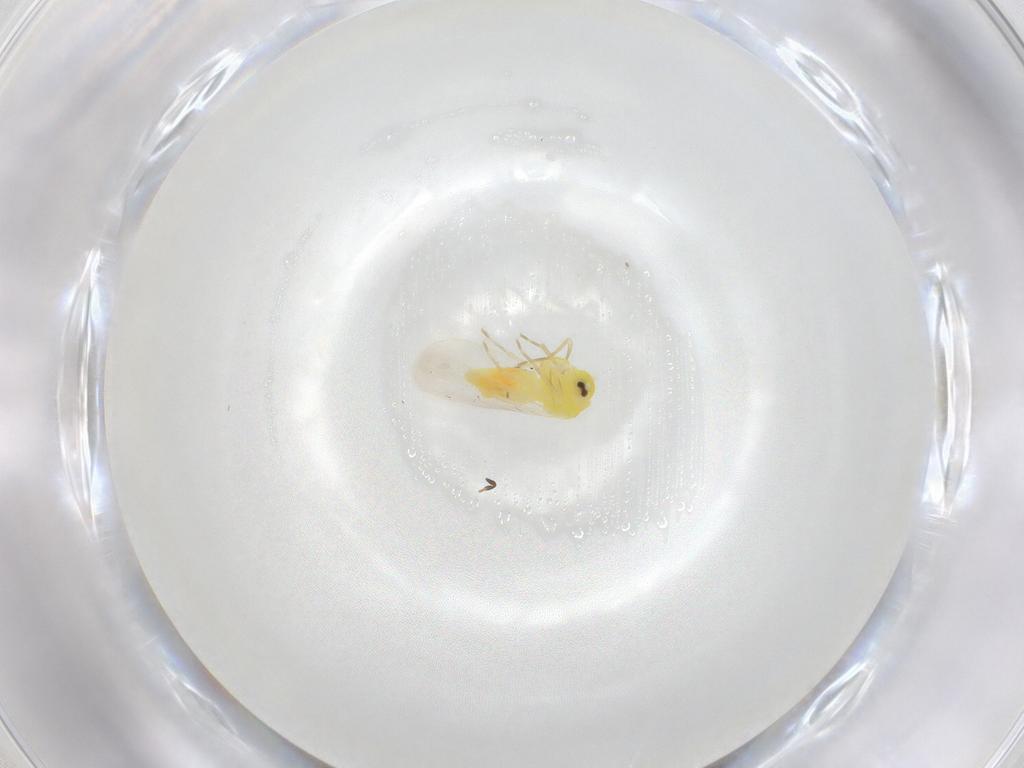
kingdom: Animalia
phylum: Arthropoda
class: Insecta
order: Hemiptera
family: Aleyrodidae
